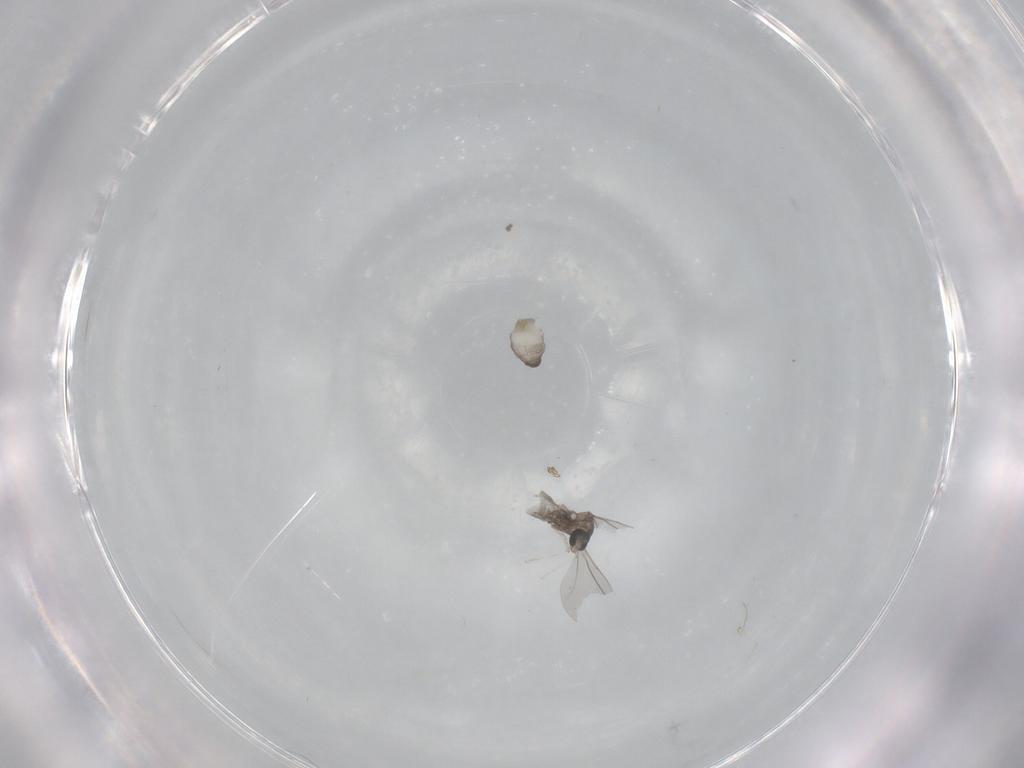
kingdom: Animalia
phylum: Arthropoda
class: Insecta
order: Diptera
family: Cecidomyiidae
